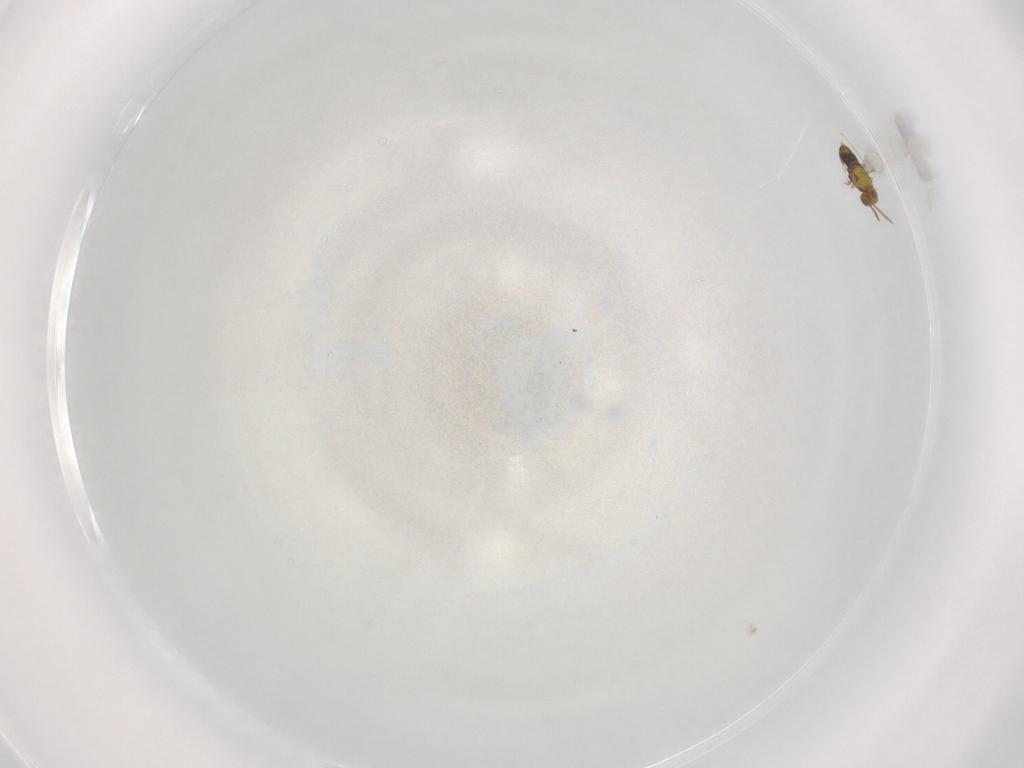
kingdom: Animalia
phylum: Arthropoda
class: Insecta
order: Hymenoptera
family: Aphelinidae
